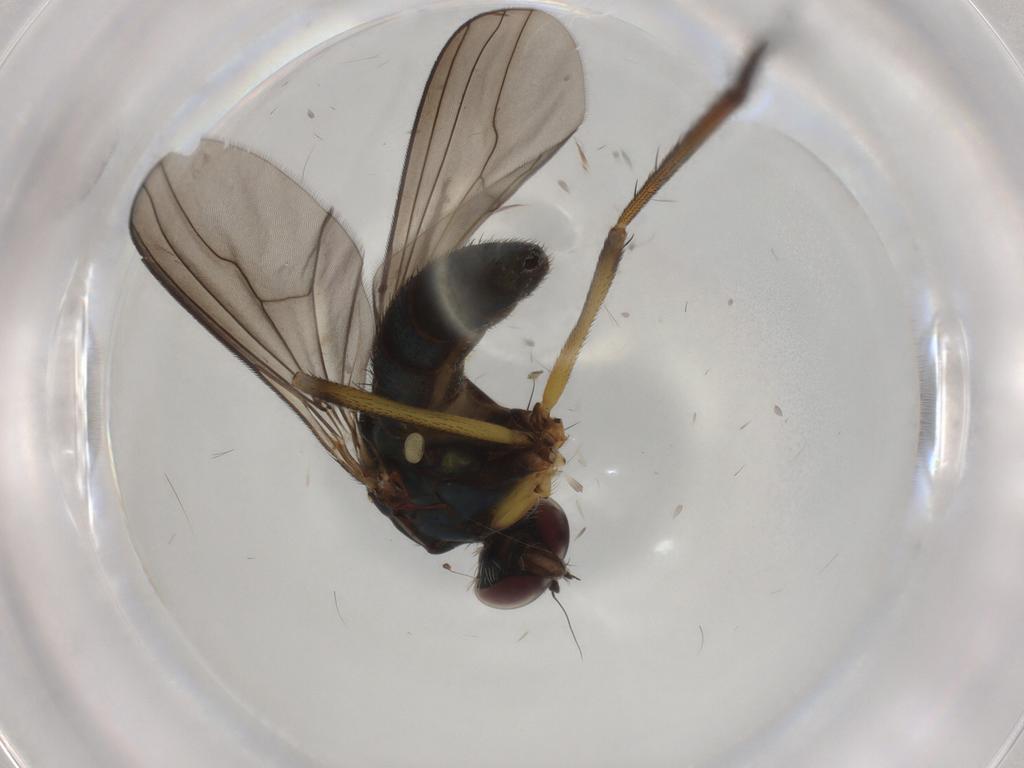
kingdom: Animalia
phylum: Arthropoda
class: Insecta
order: Diptera
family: Dolichopodidae
